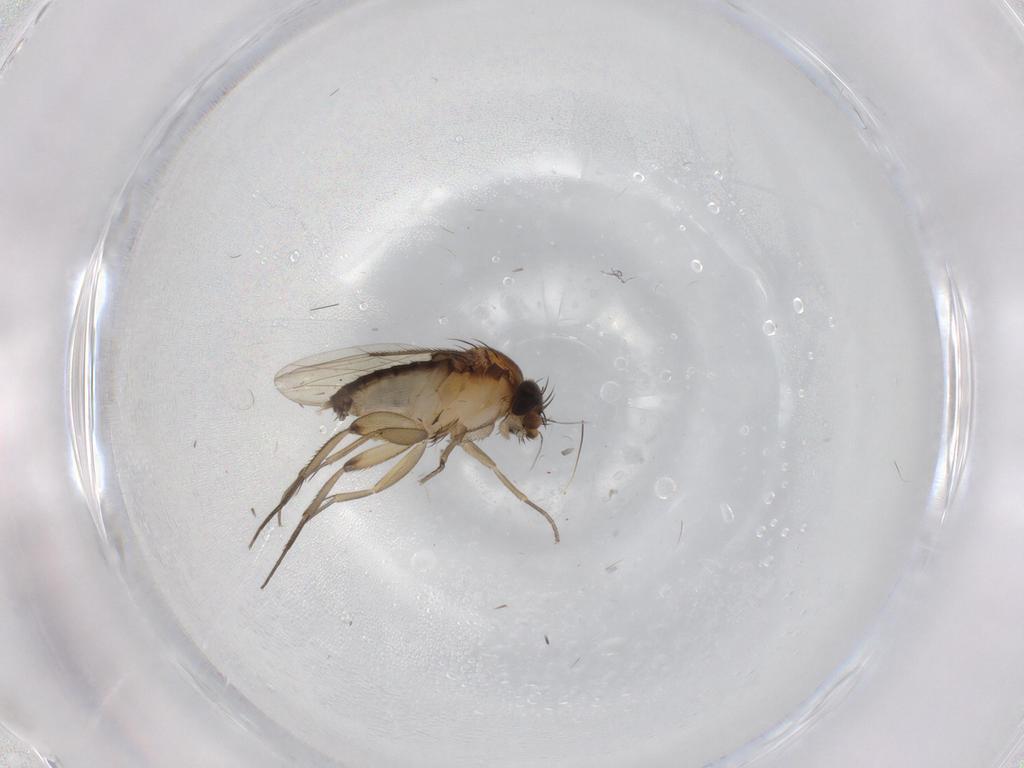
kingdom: Animalia
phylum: Arthropoda
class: Insecta
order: Diptera
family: Phoridae
